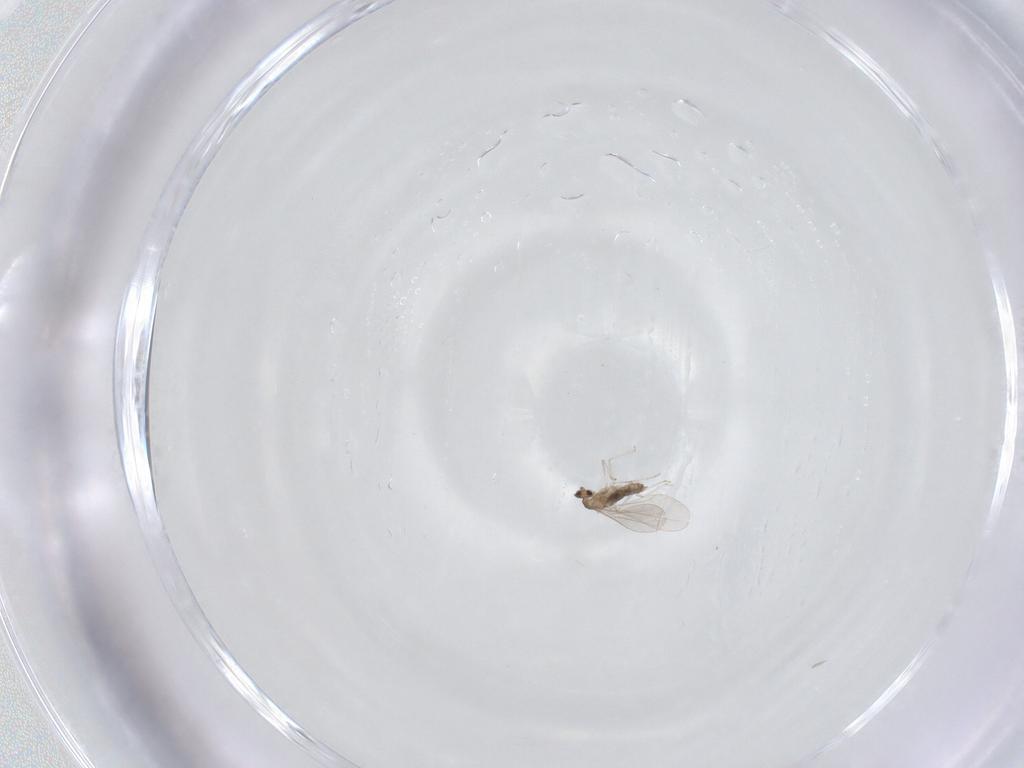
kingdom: Animalia
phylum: Arthropoda
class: Insecta
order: Diptera
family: Cecidomyiidae
